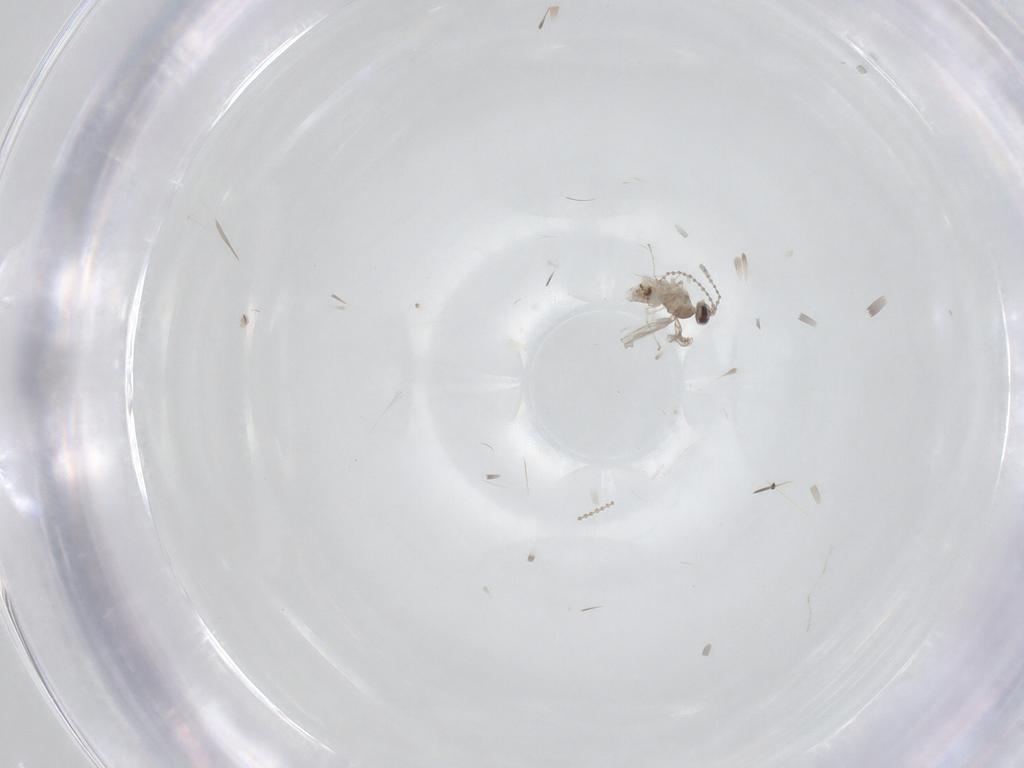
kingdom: Animalia
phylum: Arthropoda
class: Insecta
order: Diptera
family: Cecidomyiidae
